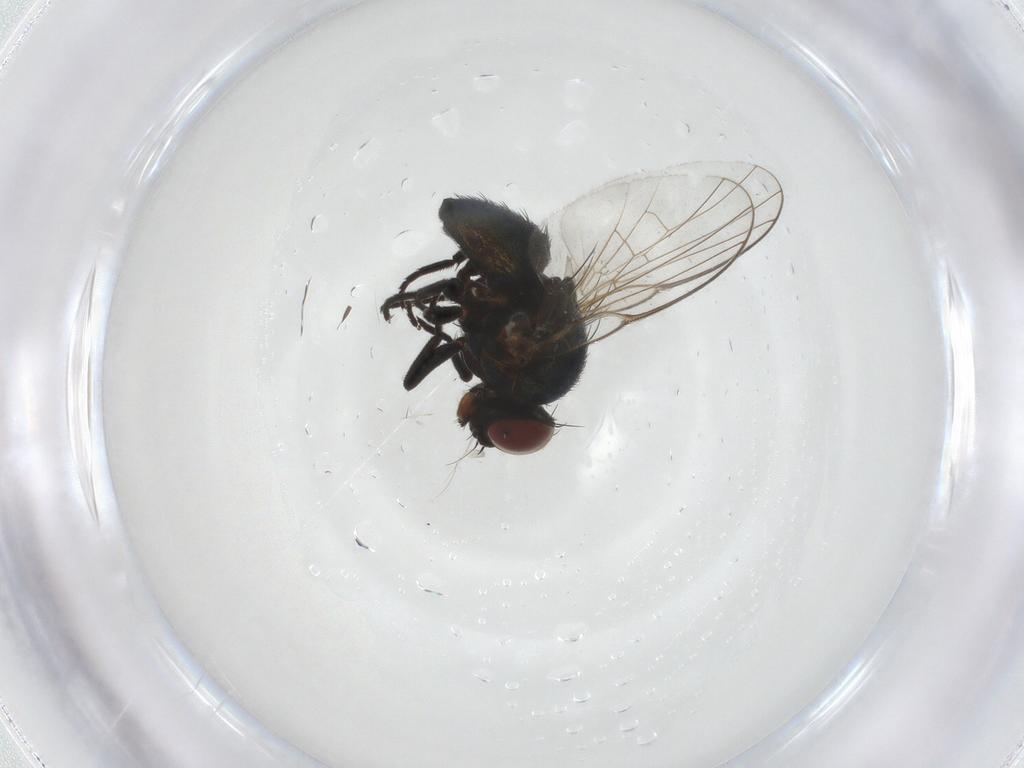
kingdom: Animalia
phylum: Arthropoda
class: Insecta
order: Diptera
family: Agromyzidae
